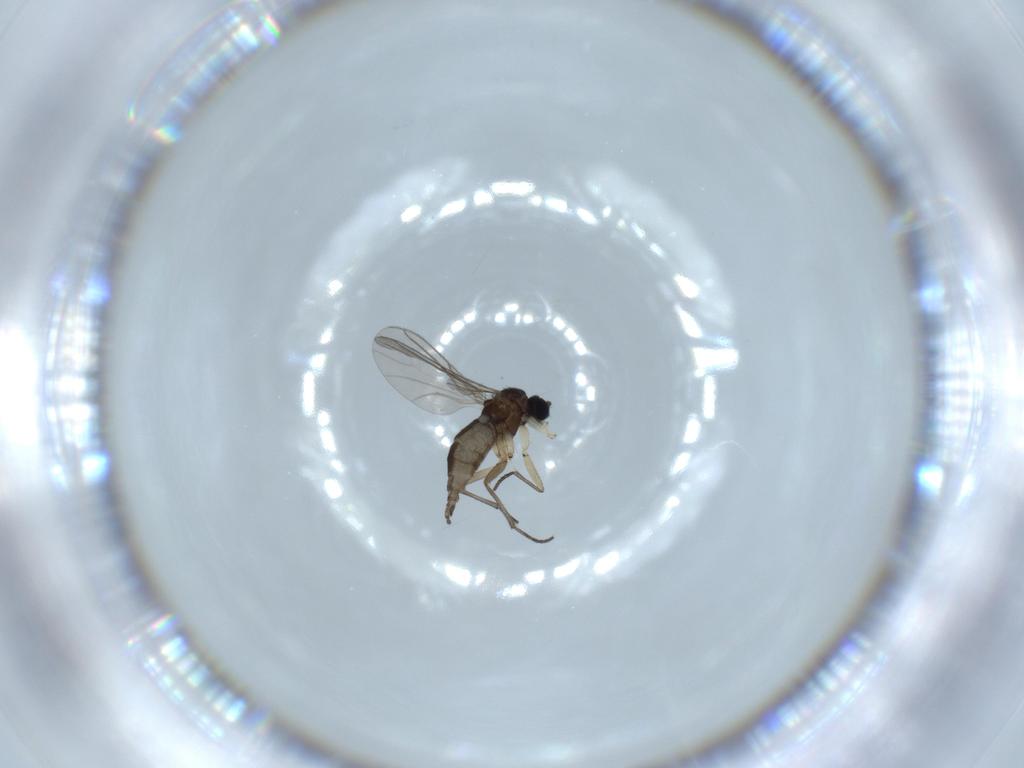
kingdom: Animalia
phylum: Arthropoda
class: Insecta
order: Diptera
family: Sciaridae
